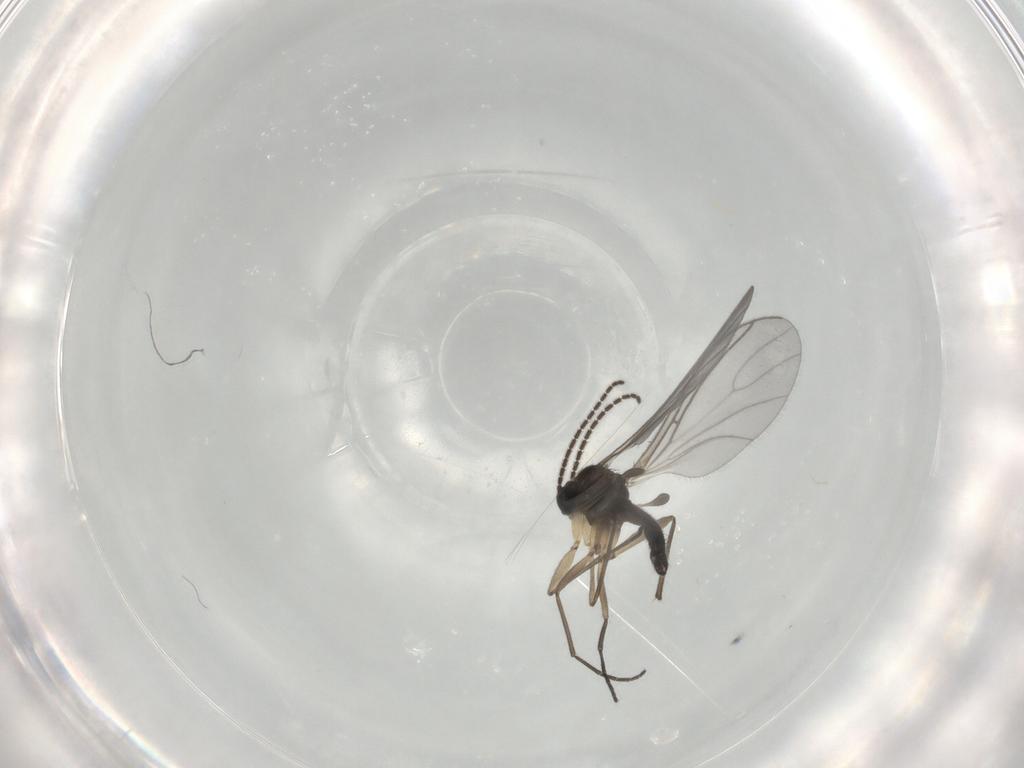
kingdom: Animalia
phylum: Arthropoda
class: Insecta
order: Diptera
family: Sciaridae
